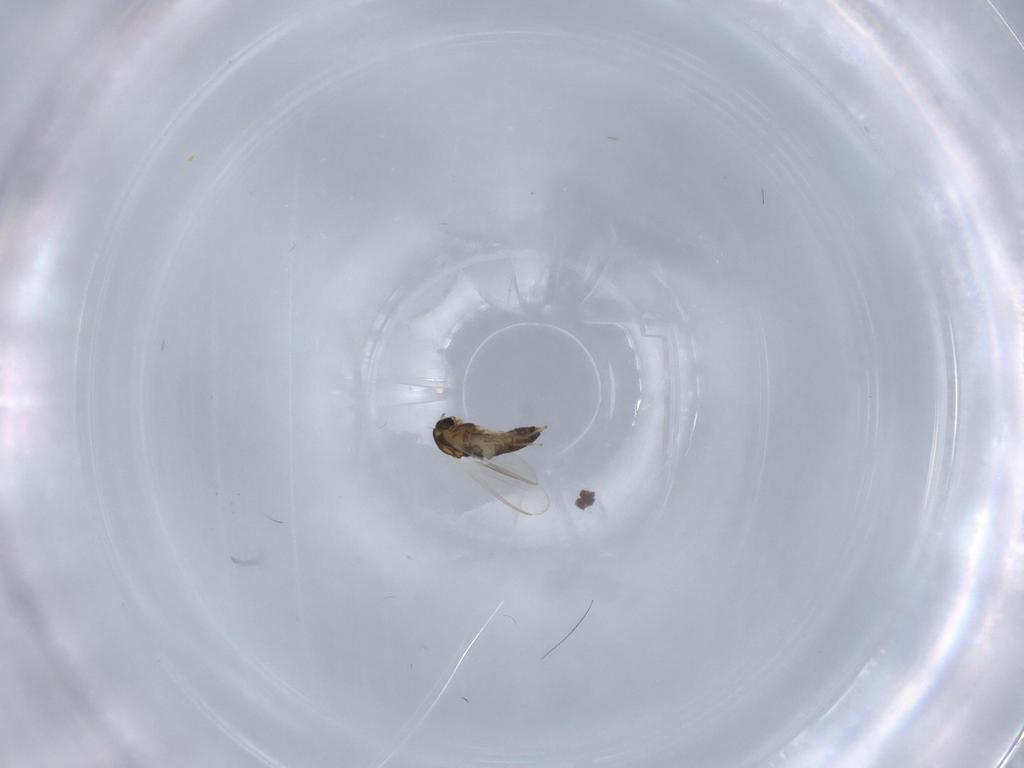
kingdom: Animalia
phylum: Arthropoda
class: Insecta
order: Diptera
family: Chironomidae
